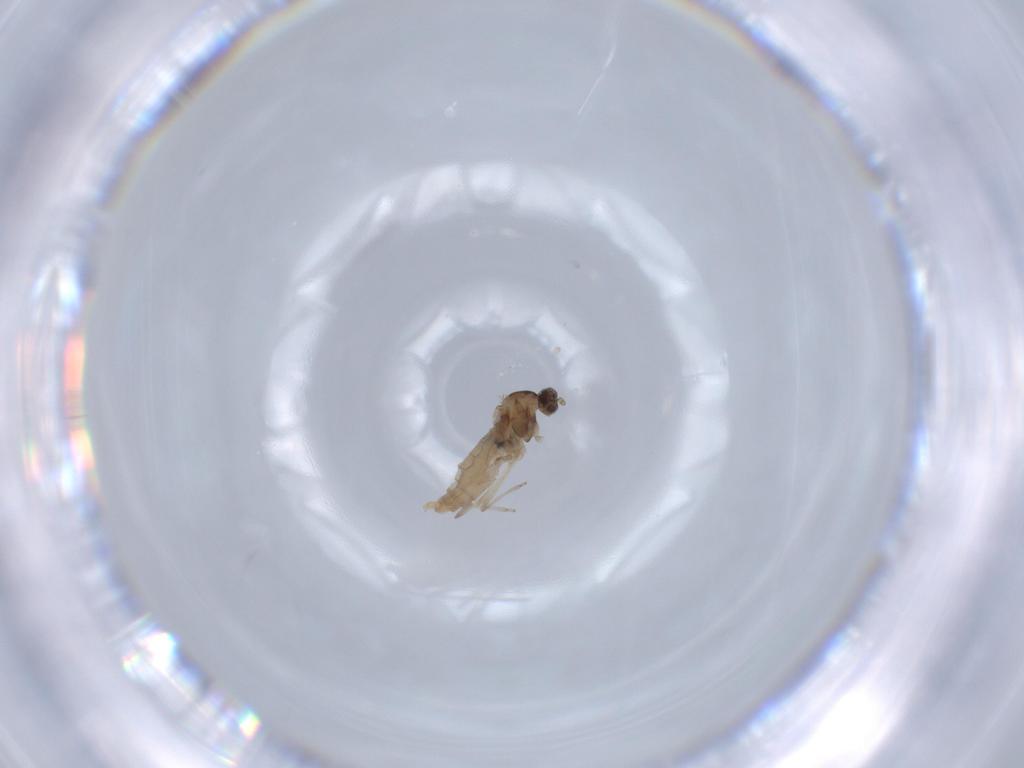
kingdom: Animalia
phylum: Arthropoda
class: Insecta
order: Diptera
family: Cecidomyiidae
